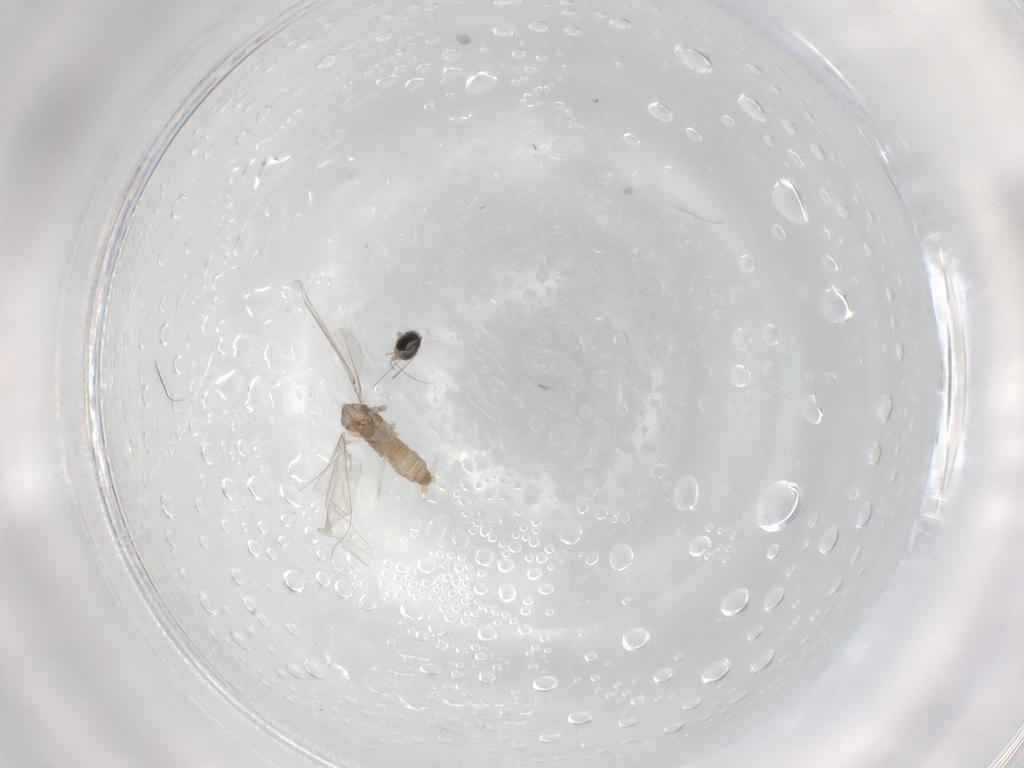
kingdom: Animalia
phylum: Arthropoda
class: Insecta
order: Diptera
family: Cecidomyiidae
